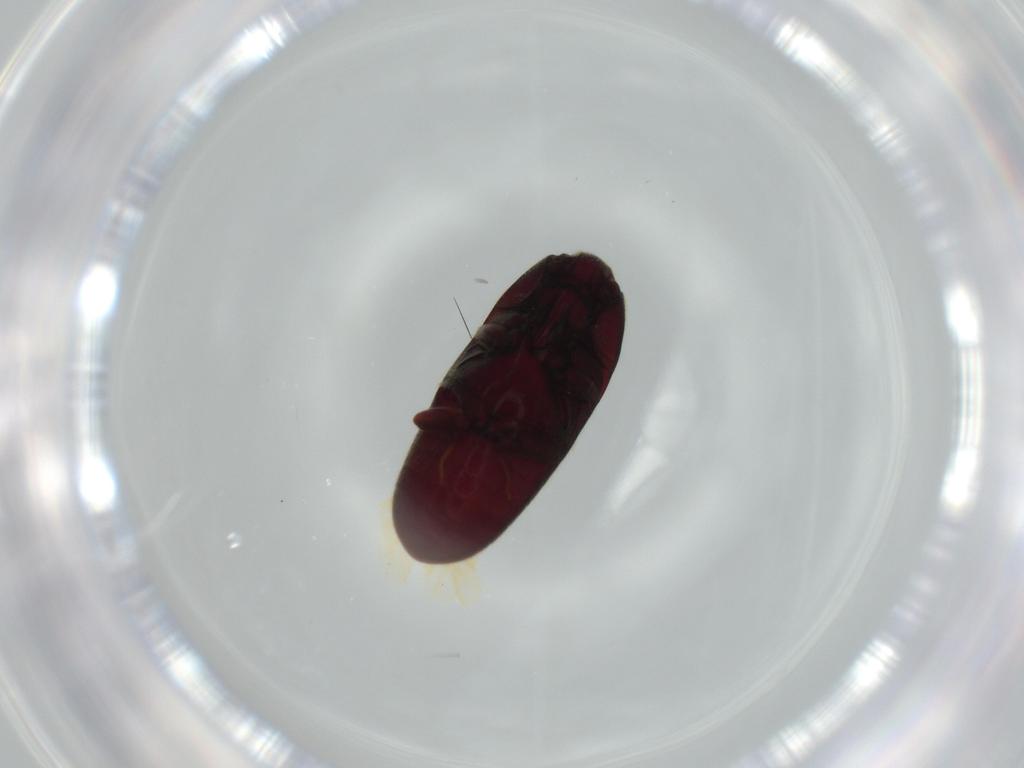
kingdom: Animalia
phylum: Arthropoda
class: Insecta
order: Coleoptera
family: Throscidae
